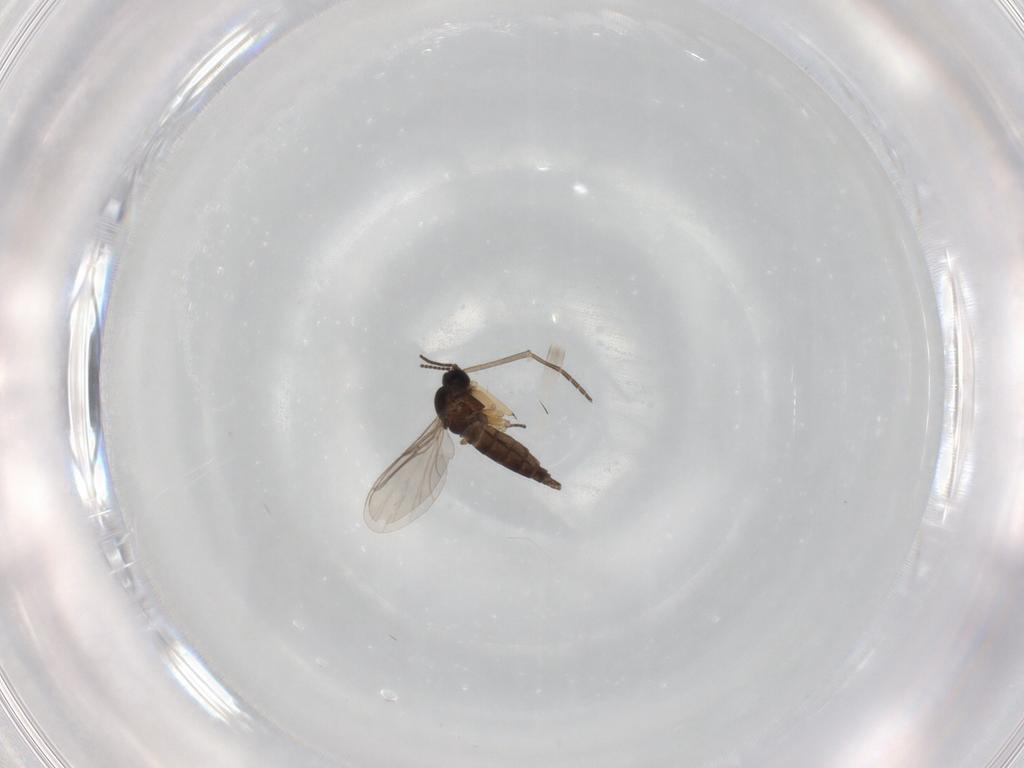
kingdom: Animalia
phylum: Arthropoda
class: Insecta
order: Diptera
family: Sciaridae
